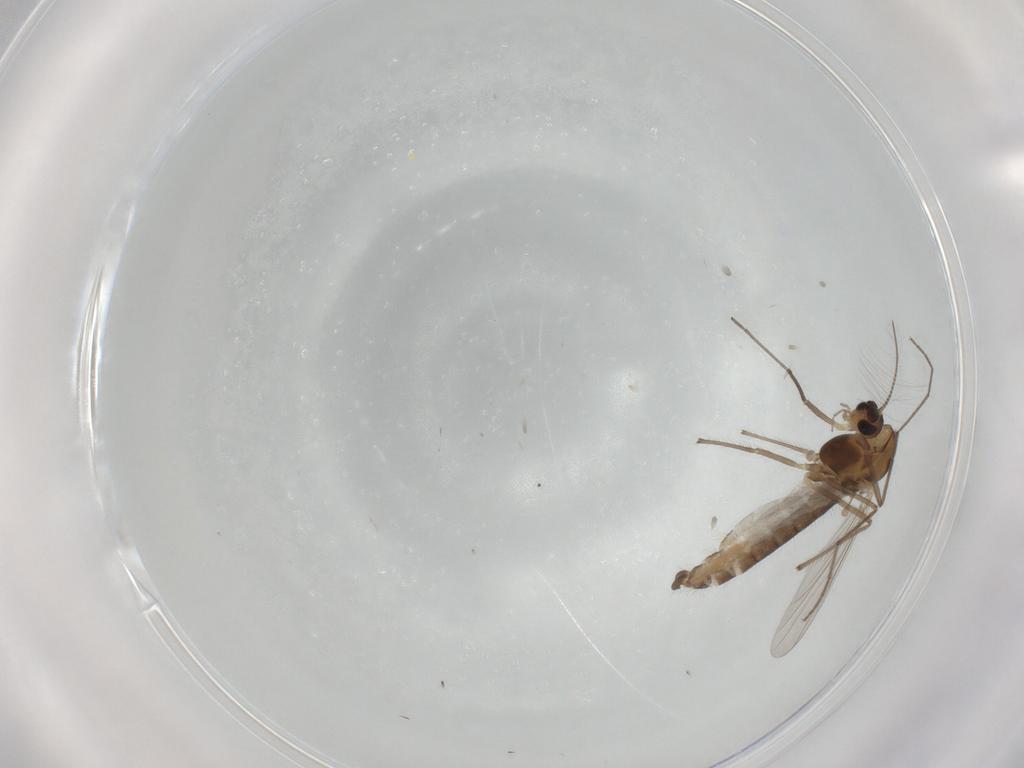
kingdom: Animalia
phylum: Arthropoda
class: Insecta
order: Diptera
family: Chironomidae
